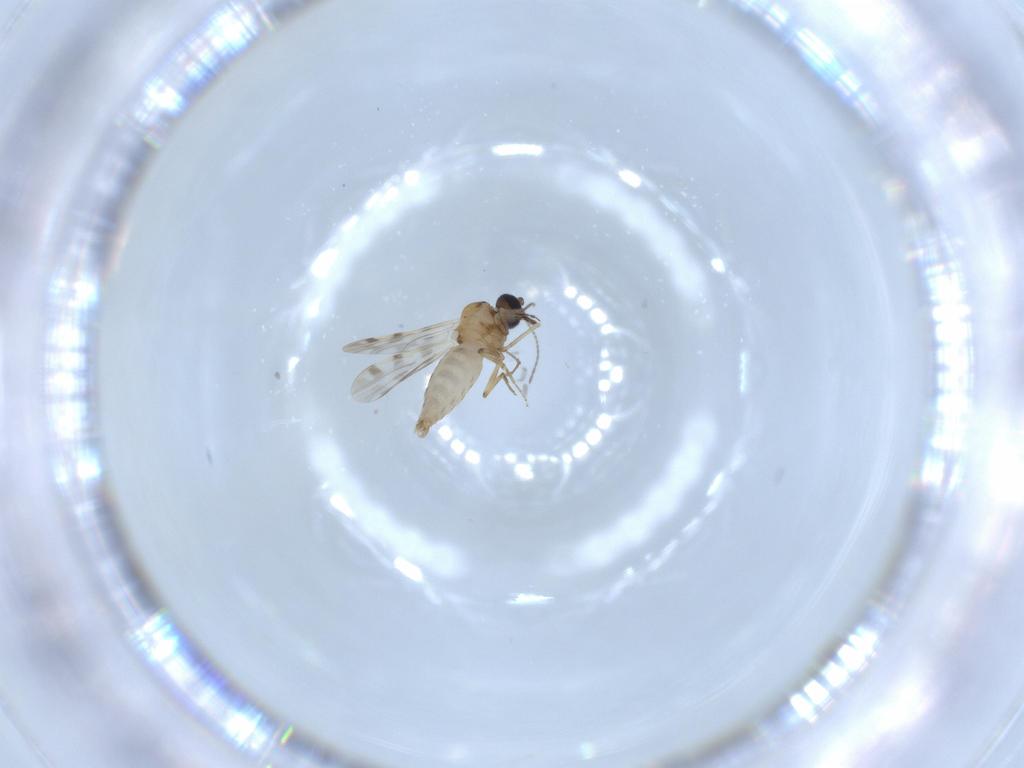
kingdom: Animalia
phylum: Arthropoda
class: Insecta
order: Diptera
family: Ceratopogonidae
